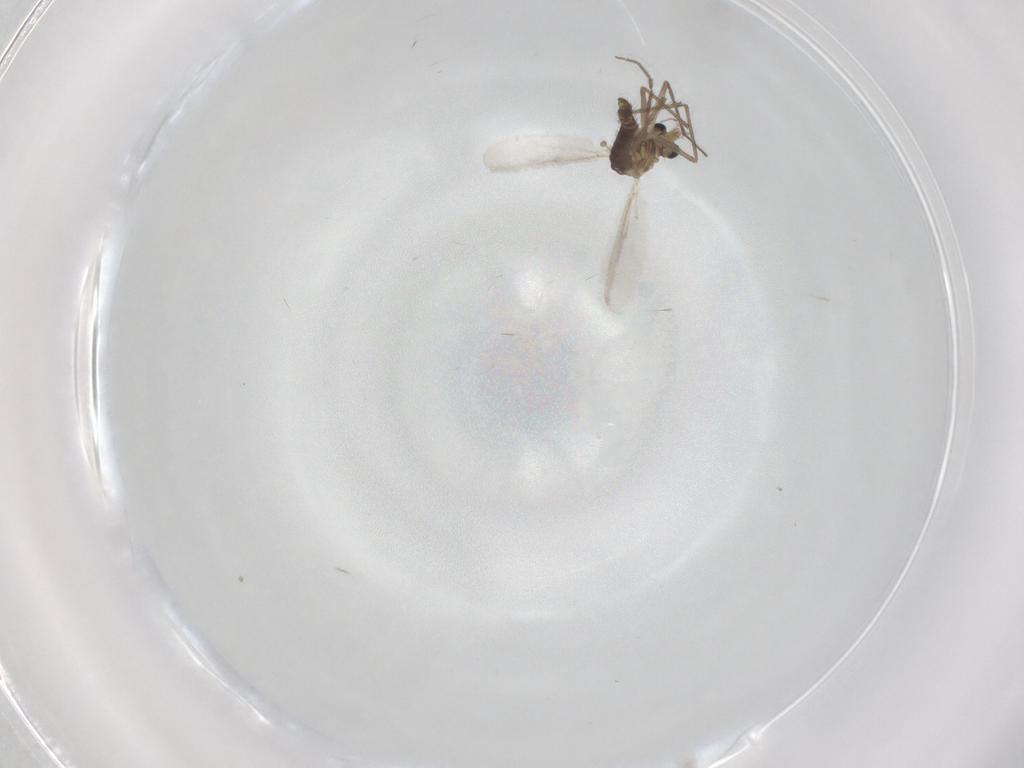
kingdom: Animalia
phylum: Arthropoda
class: Insecta
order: Diptera
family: Chironomidae
